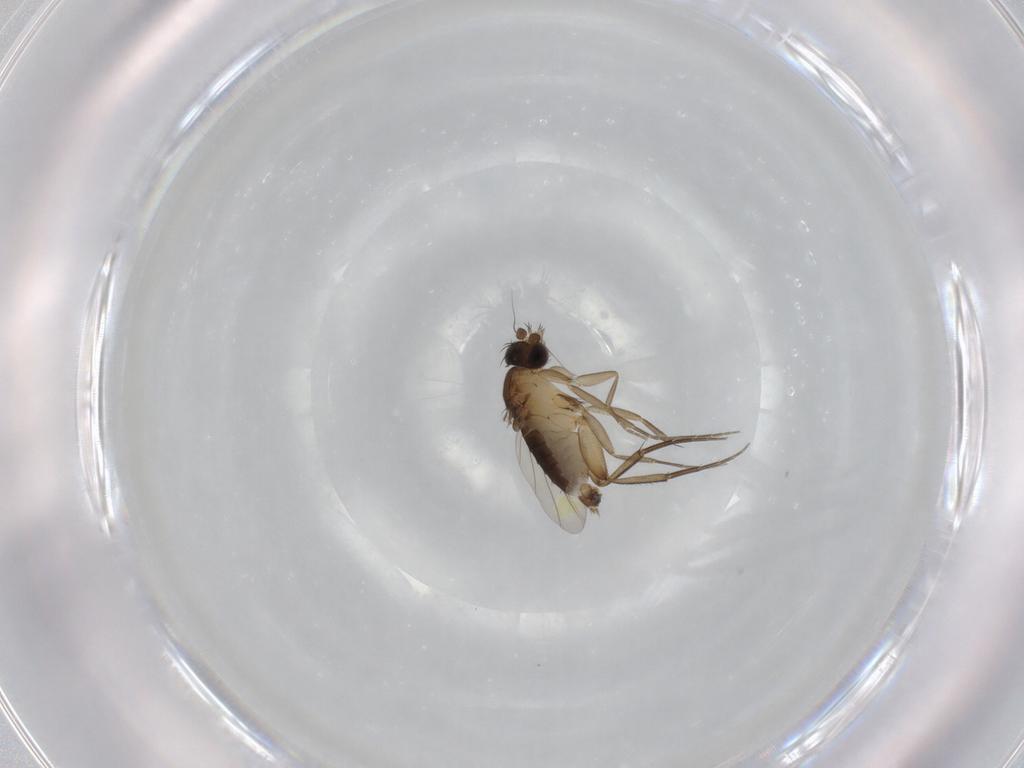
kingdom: Animalia
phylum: Arthropoda
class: Insecta
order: Diptera
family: Phoridae
